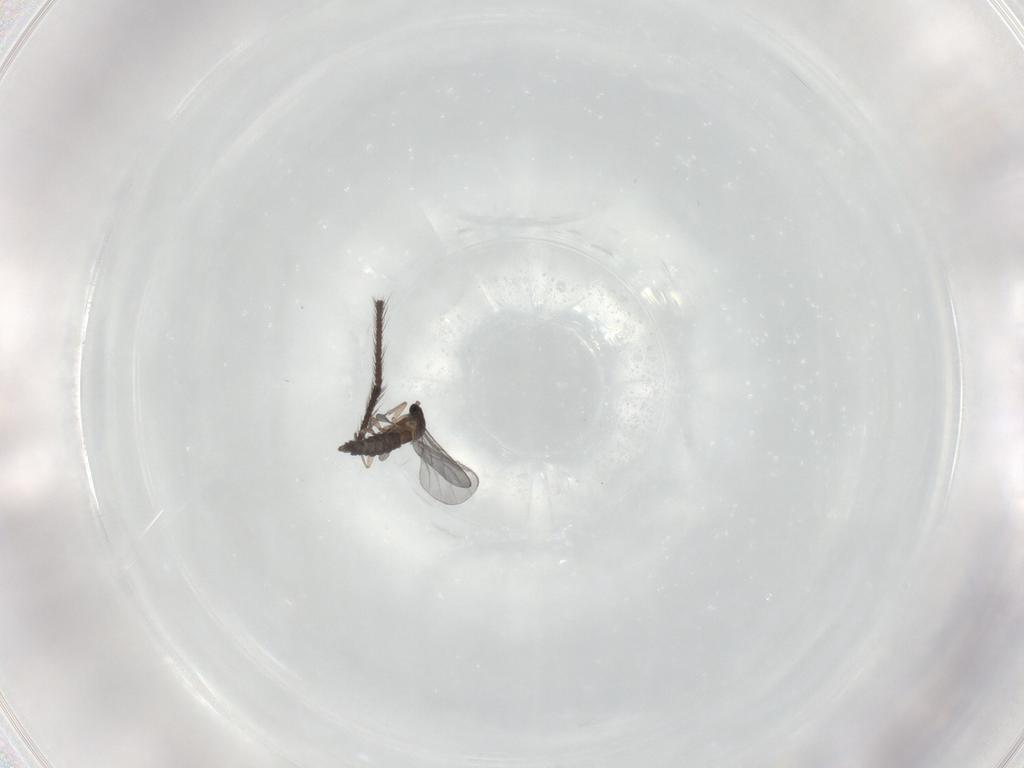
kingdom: Animalia
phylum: Arthropoda
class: Insecta
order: Diptera
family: Sciaridae
